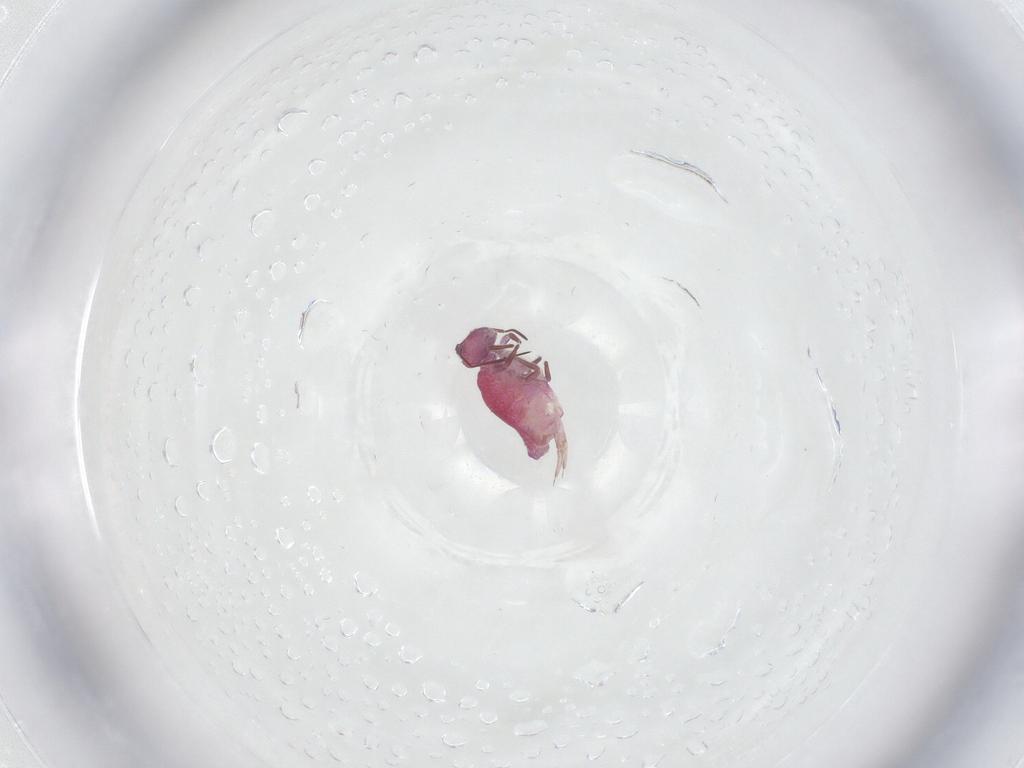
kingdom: Animalia
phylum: Arthropoda
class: Collembola
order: Symphypleona
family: Sminthuridae
